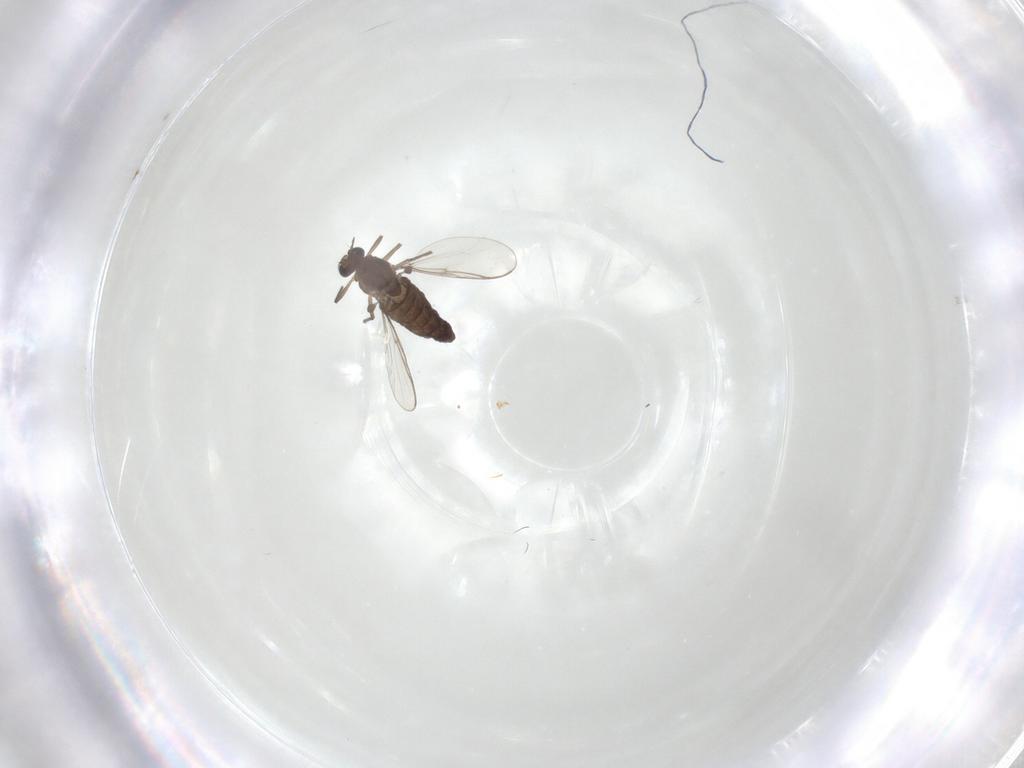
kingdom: Animalia
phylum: Arthropoda
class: Insecta
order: Diptera
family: Chironomidae
